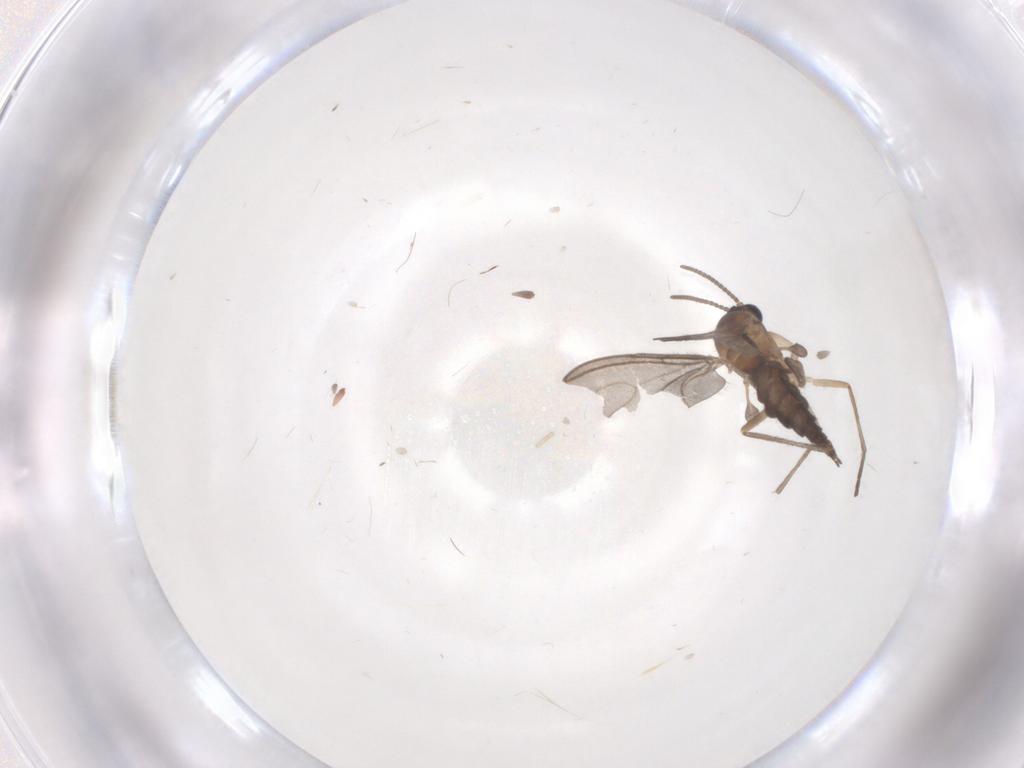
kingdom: Animalia
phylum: Arthropoda
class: Insecta
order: Diptera
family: Sciaridae
